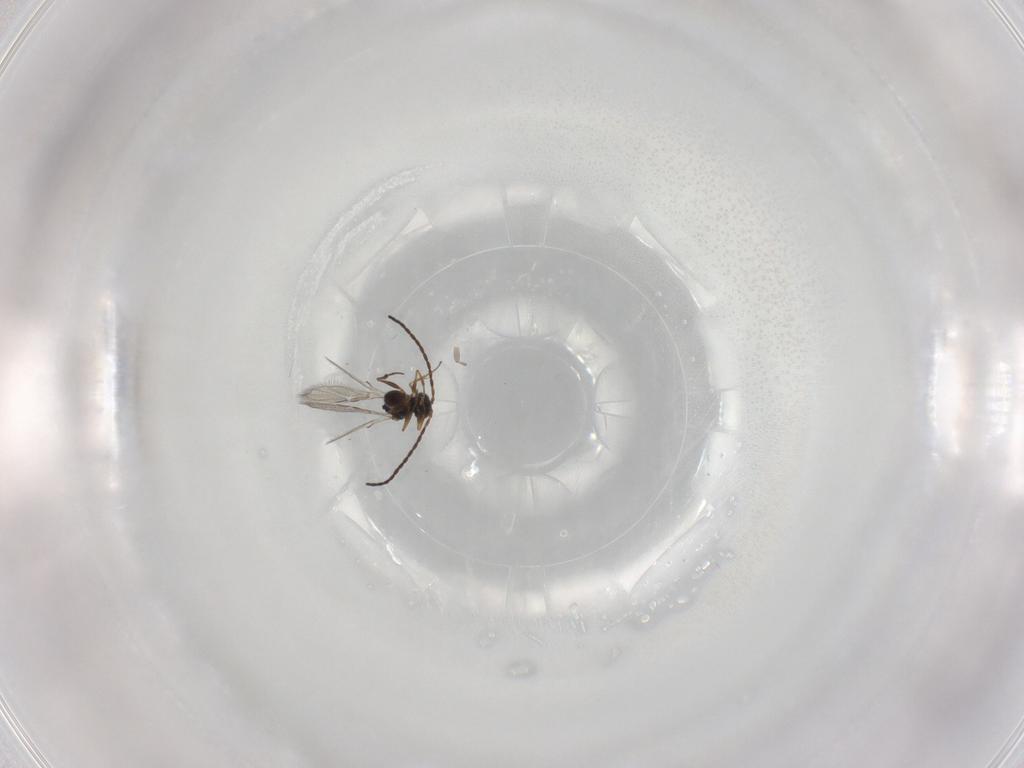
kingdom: Animalia
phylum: Arthropoda
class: Insecta
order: Hymenoptera
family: Figitidae
